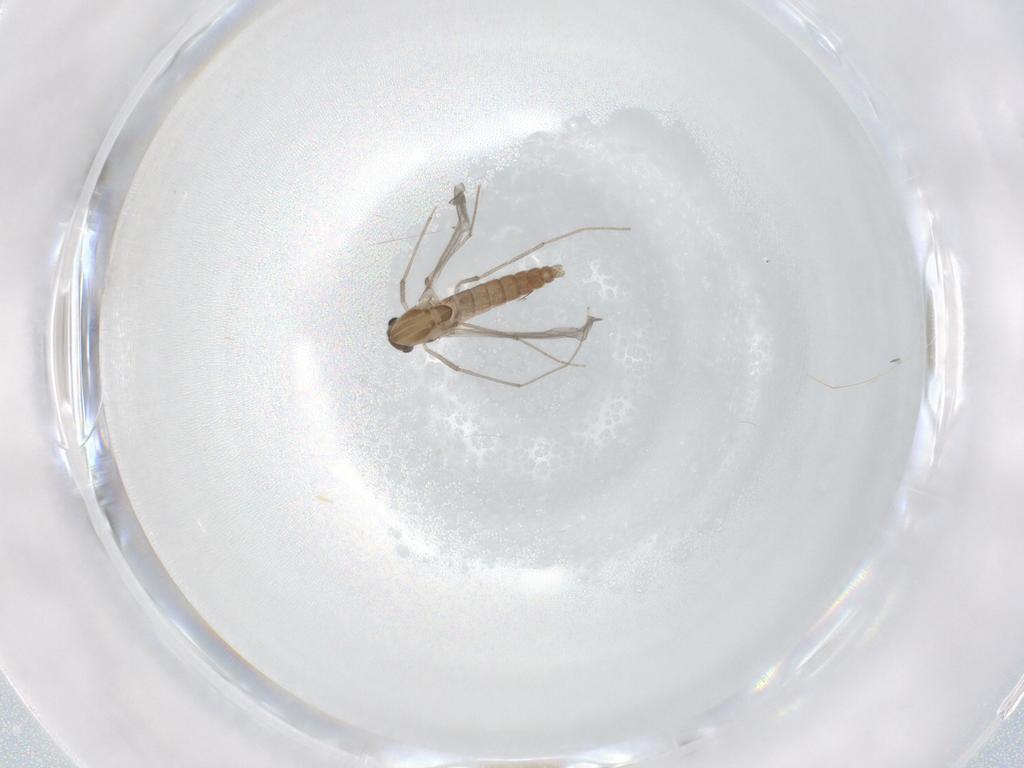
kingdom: Animalia
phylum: Arthropoda
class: Insecta
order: Diptera
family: Chironomidae
